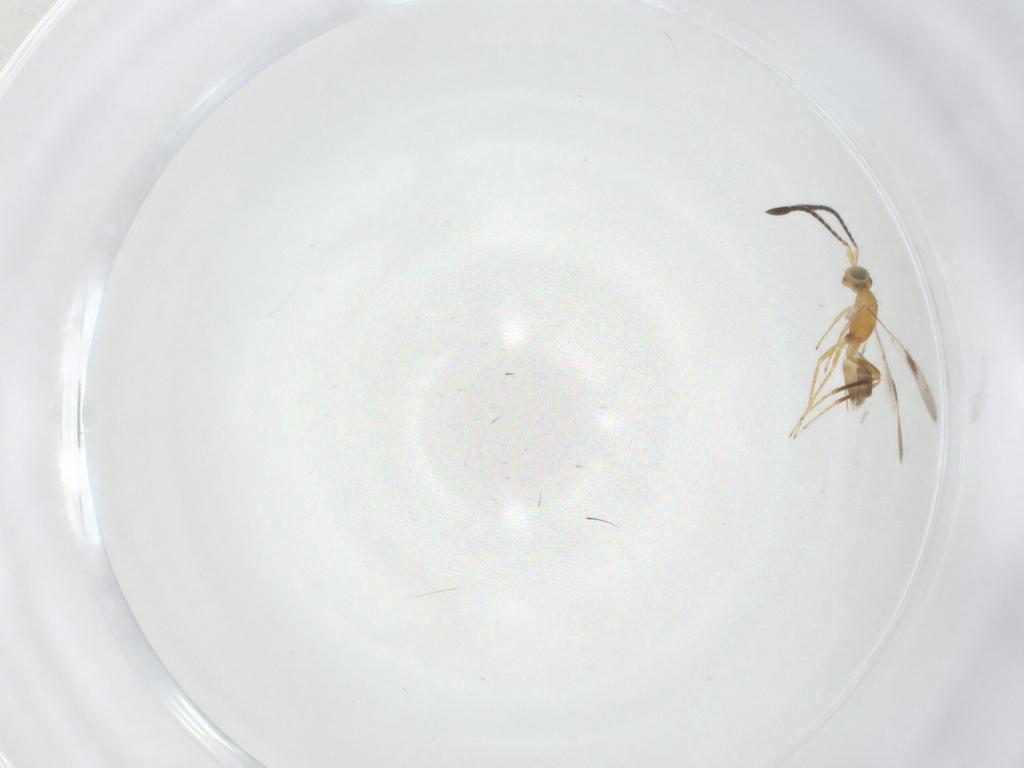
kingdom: Animalia
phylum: Arthropoda
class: Insecta
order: Hymenoptera
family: Mymaridae
